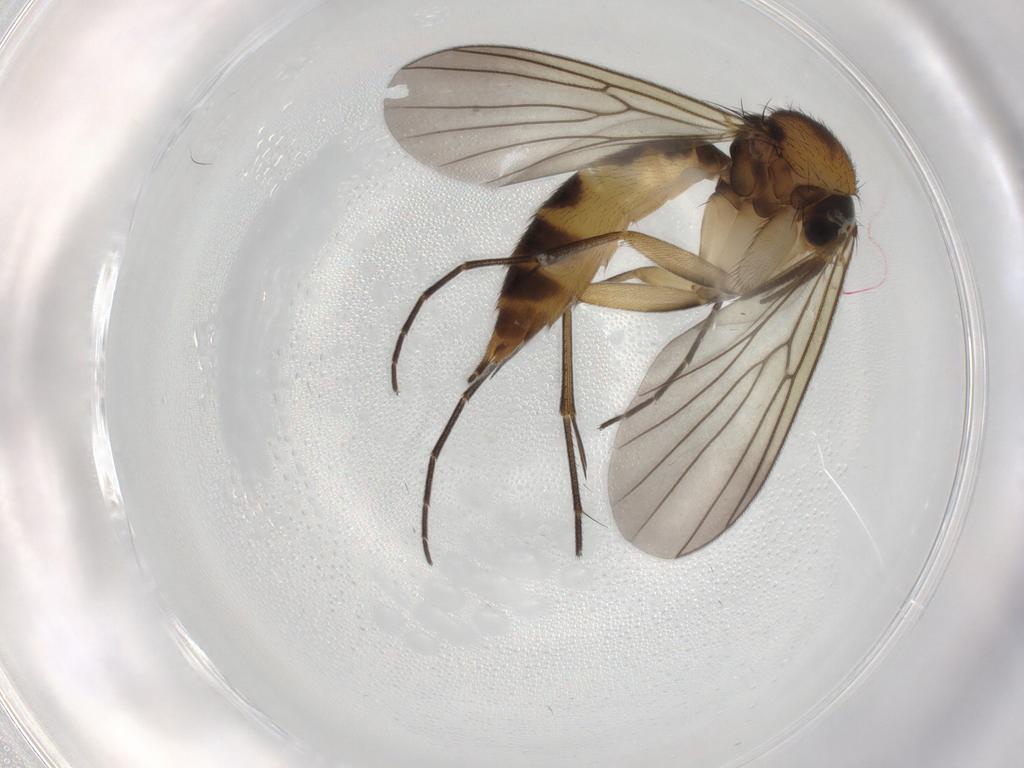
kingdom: Animalia
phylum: Arthropoda
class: Insecta
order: Diptera
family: Mycetophilidae
